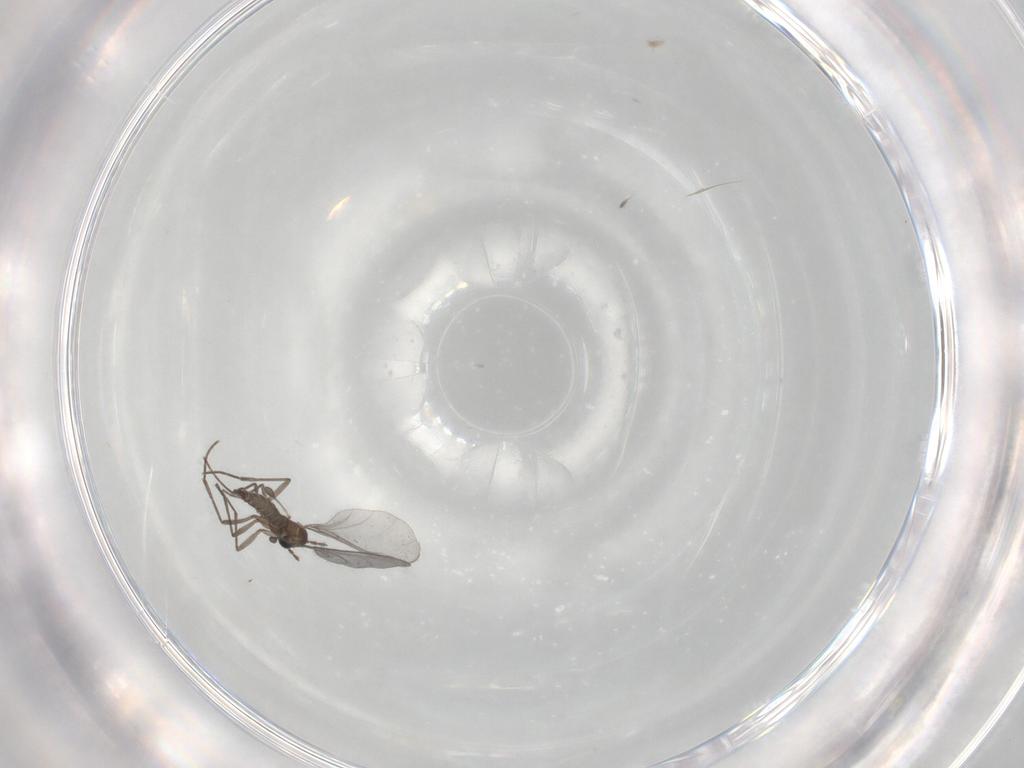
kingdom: Animalia
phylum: Arthropoda
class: Insecta
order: Diptera
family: Sciaridae
